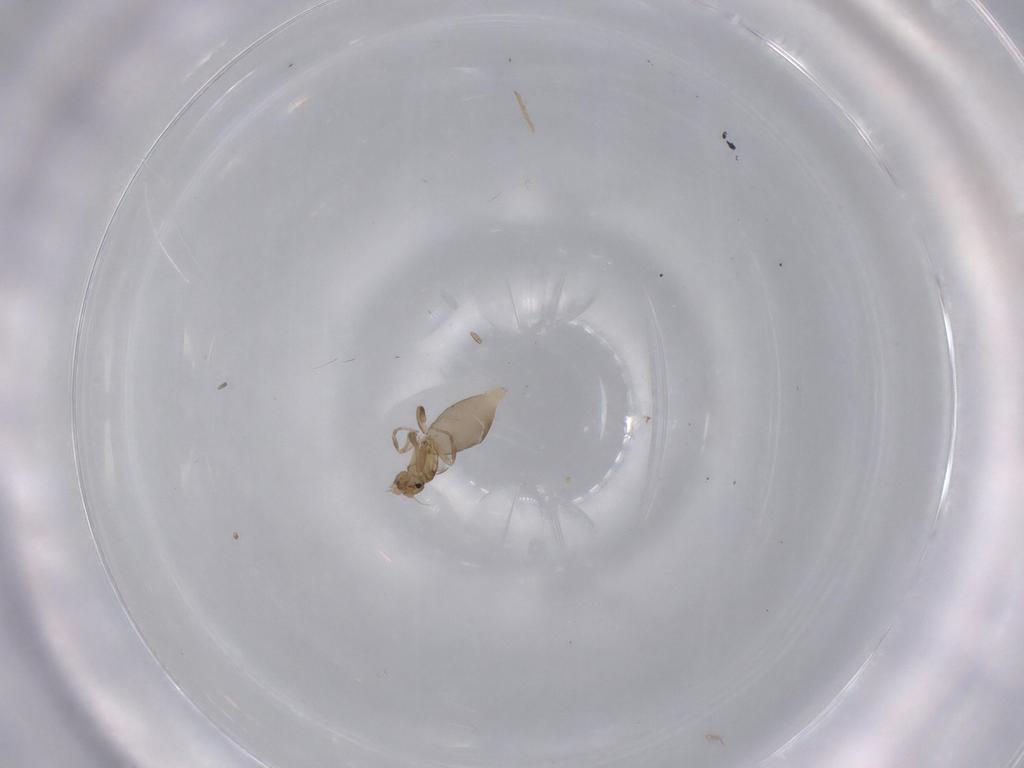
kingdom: Animalia
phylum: Arthropoda
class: Insecta
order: Diptera
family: Phoridae
